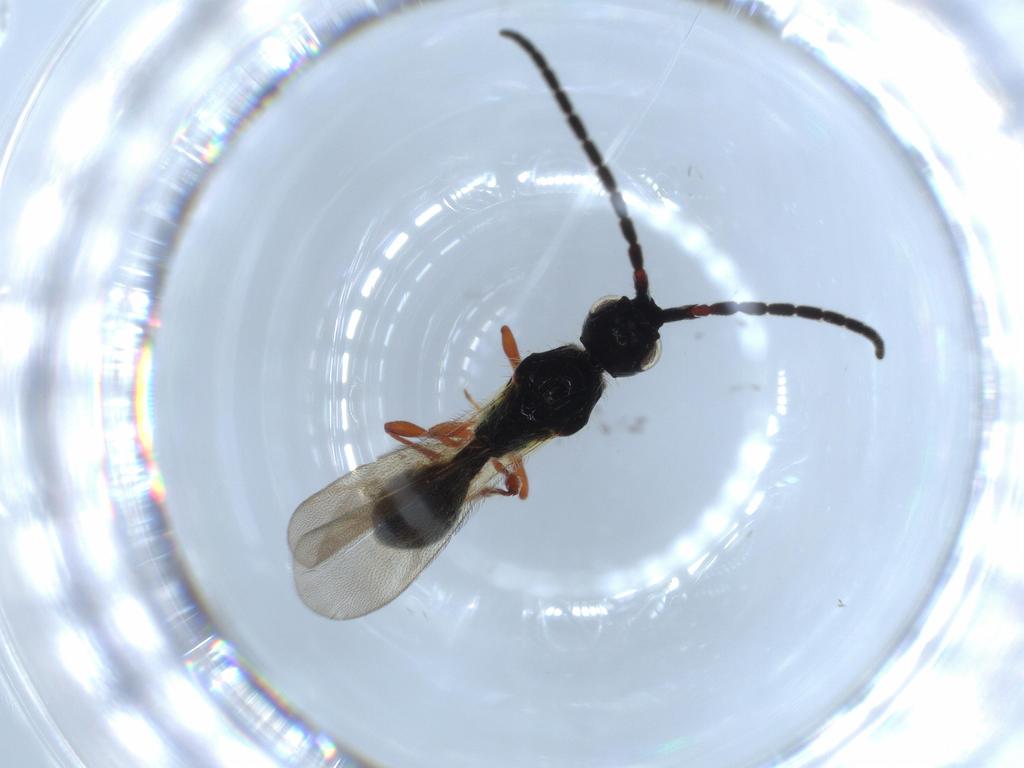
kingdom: Animalia
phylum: Arthropoda
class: Insecta
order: Hymenoptera
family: Diapriidae
